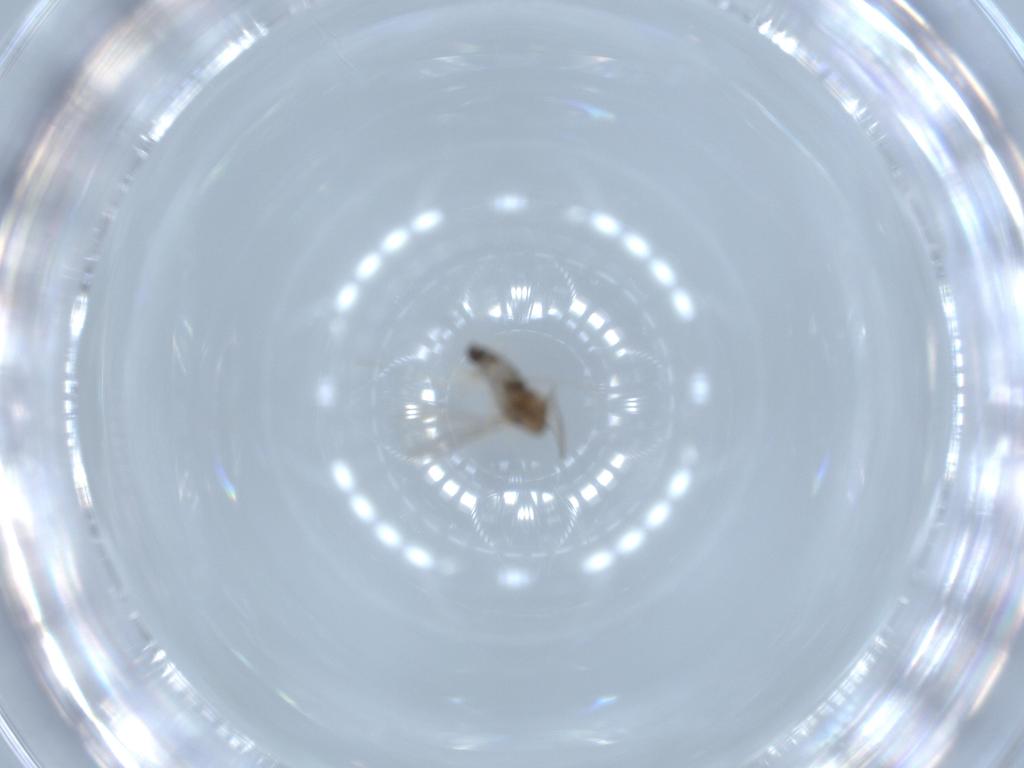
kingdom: Animalia
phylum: Arthropoda
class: Insecta
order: Diptera
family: Cecidomyiidae
